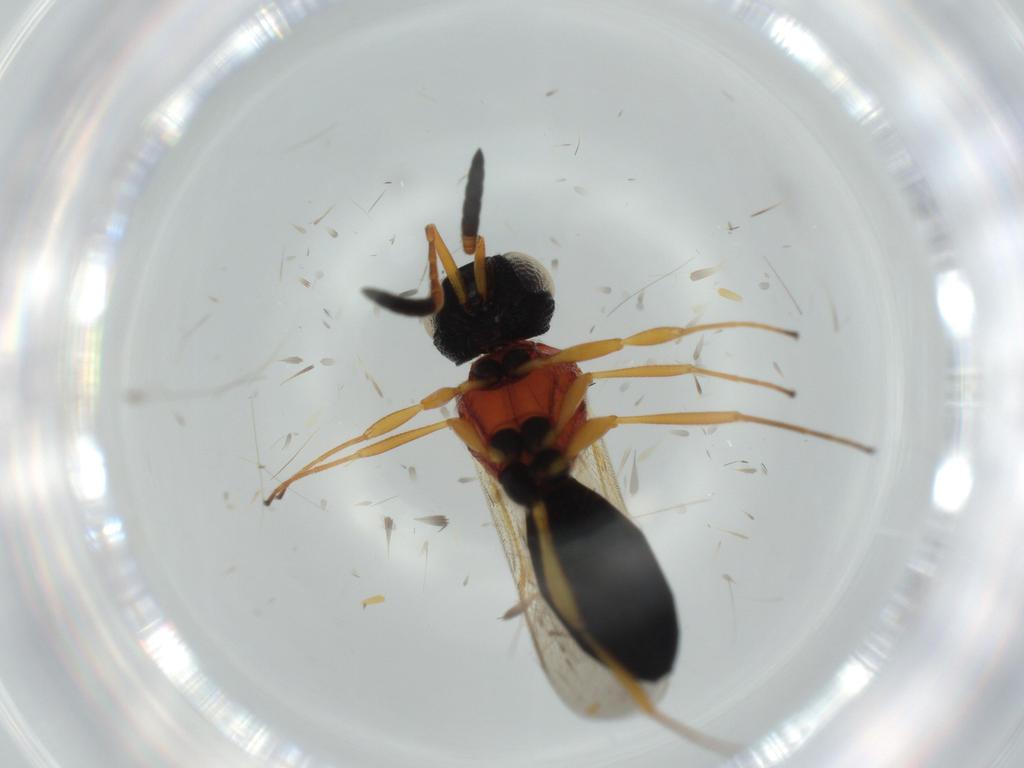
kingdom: Animalia
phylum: Arthropoda
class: Insecta
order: Hymenoptera
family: Scelionidae
